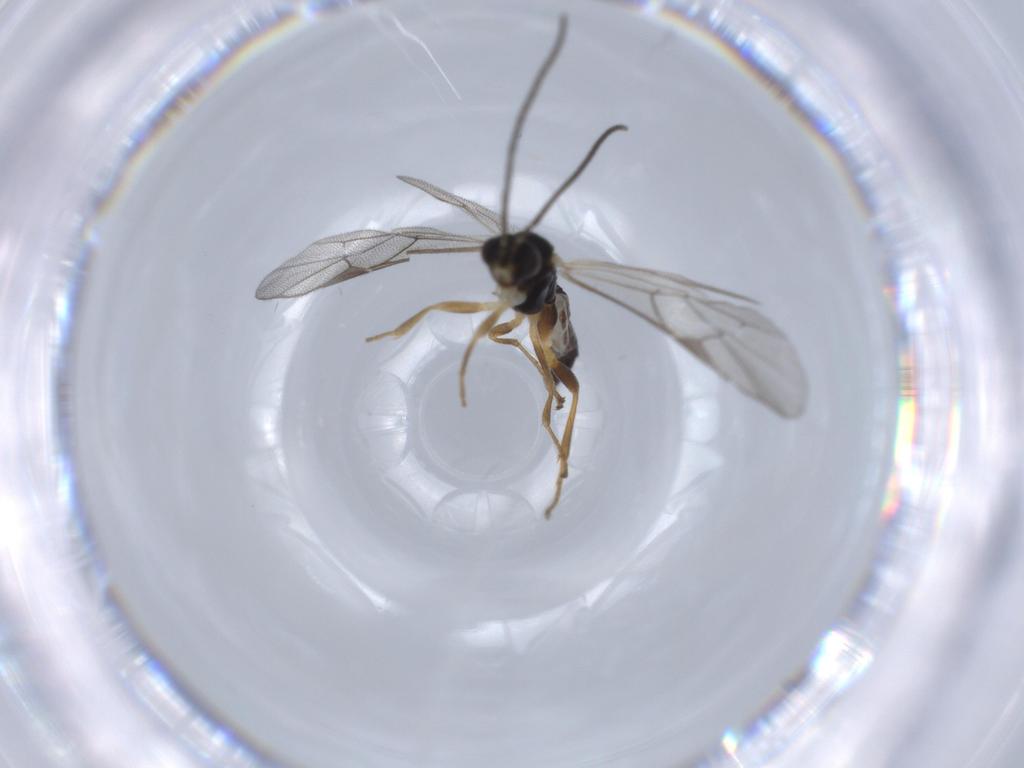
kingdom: Animalia
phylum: Arthropoda
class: Insecta
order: Hymenoptera
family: Ichneumonidae
